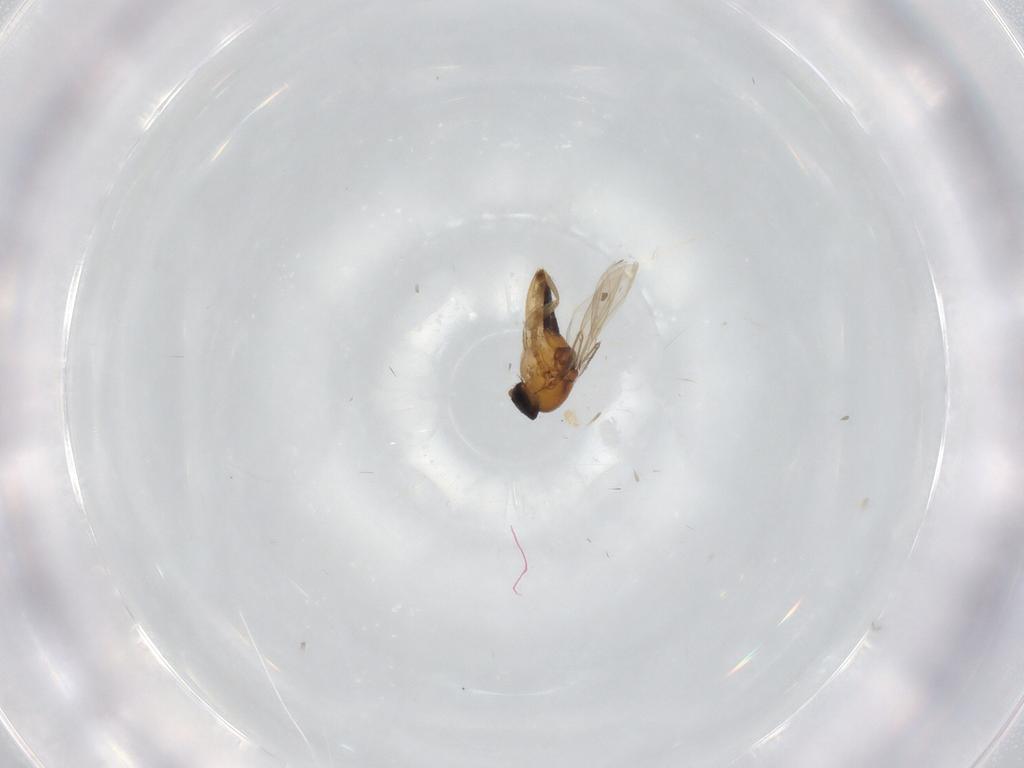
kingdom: Animalia
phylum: Arthropoda
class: Insecta
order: Diptera
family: Muscidae
